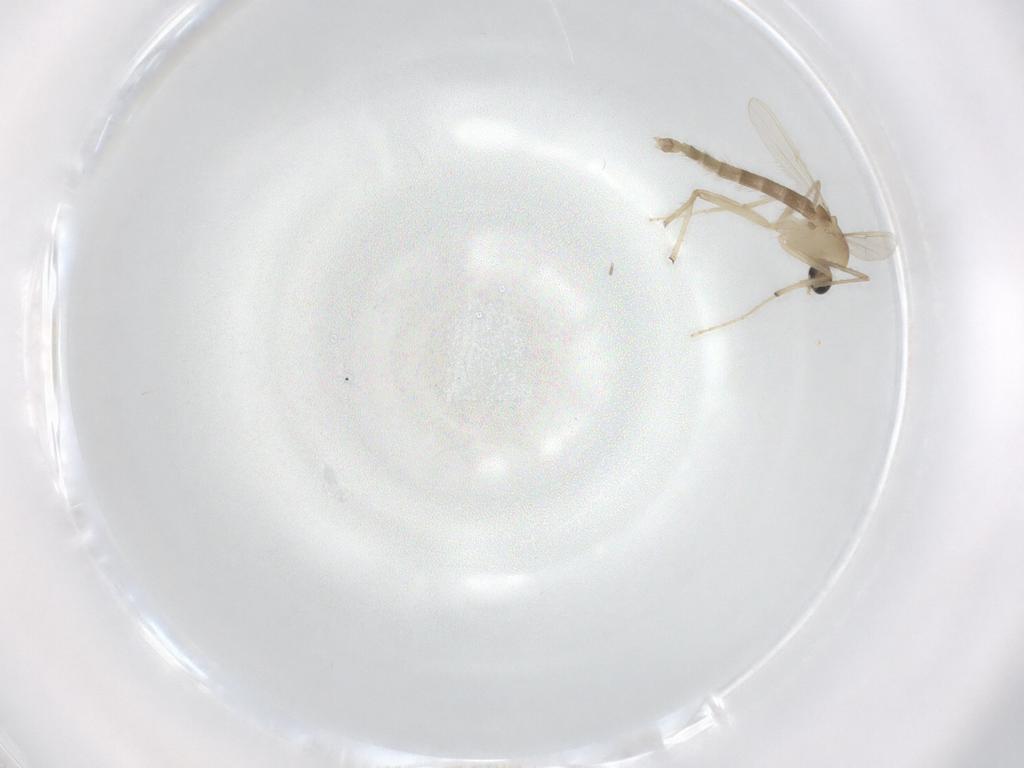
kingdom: Animalia
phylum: Arthropoda
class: Insecta
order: Diptera
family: Chironomidae
